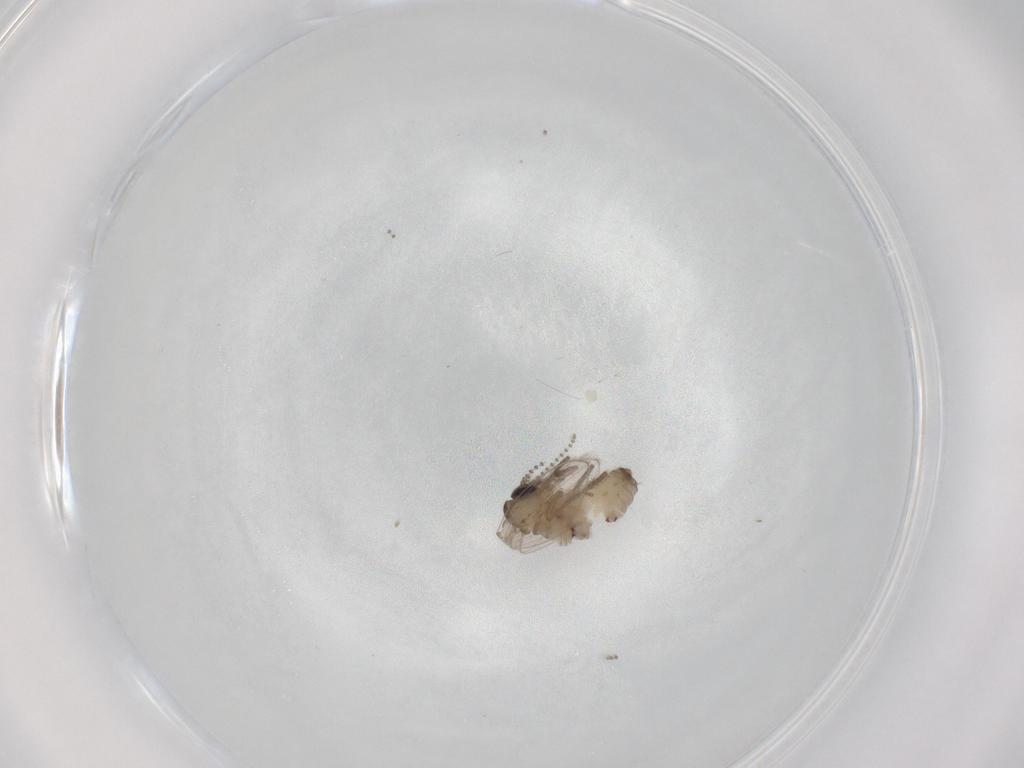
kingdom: Animalia
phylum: Arthropoda
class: Insecta
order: Diptera
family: Psychodidae
